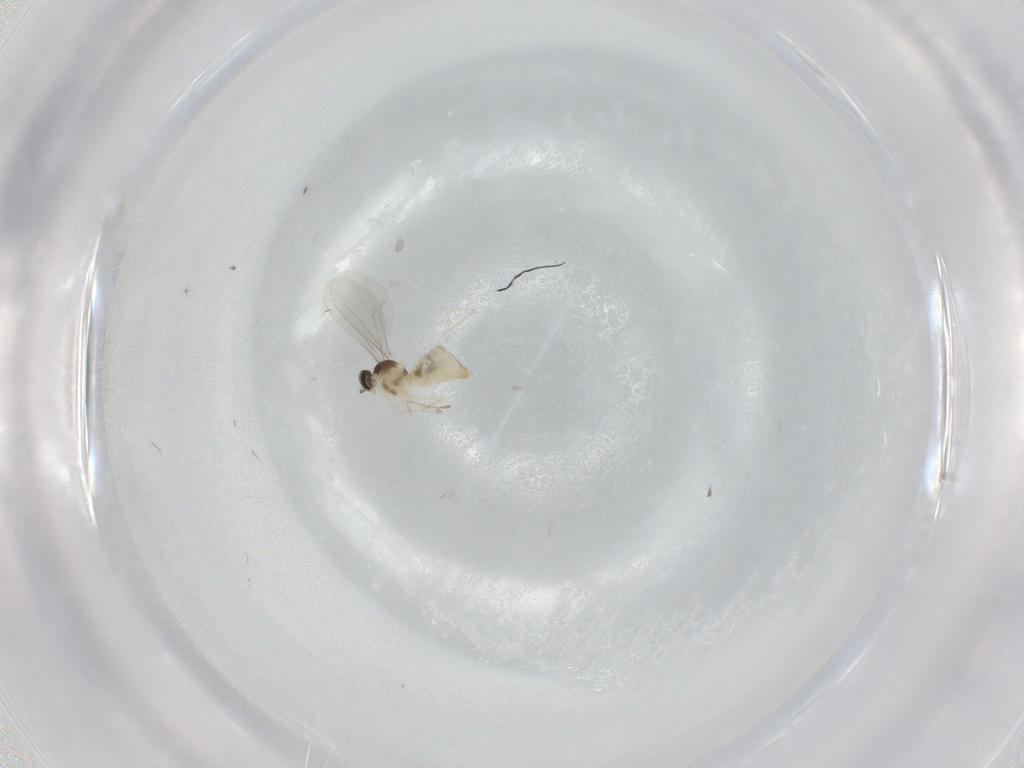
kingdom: Animalia
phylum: Arthropoda
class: Insecta
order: Diptera
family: Cecidomyiidae
